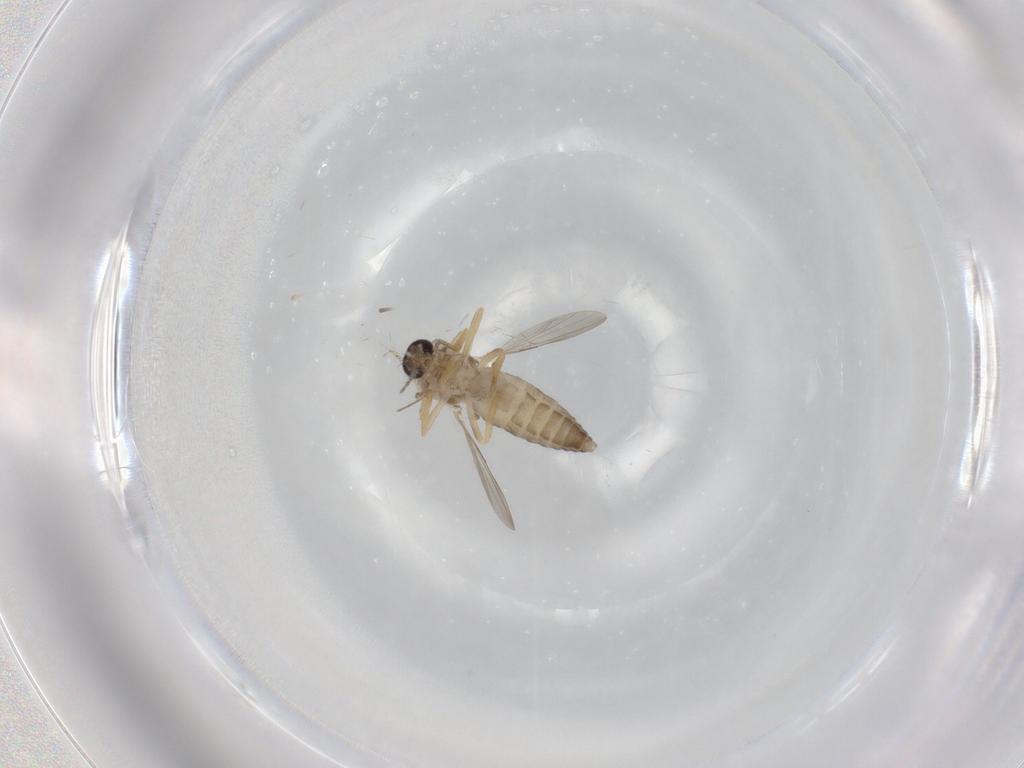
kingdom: Animalia
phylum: Arthropoda
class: Insecta
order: Diptera
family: Ceratopogonidae
